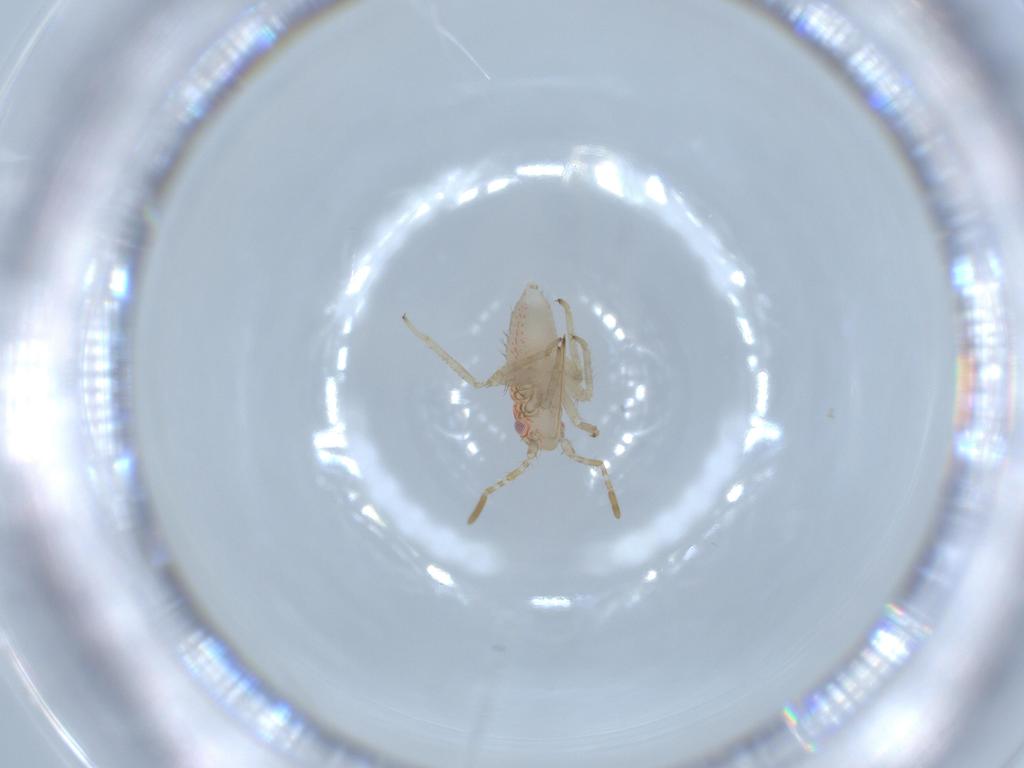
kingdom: Animalia
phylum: Arthropoda
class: Insecta
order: Hemiptera
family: Miridae
